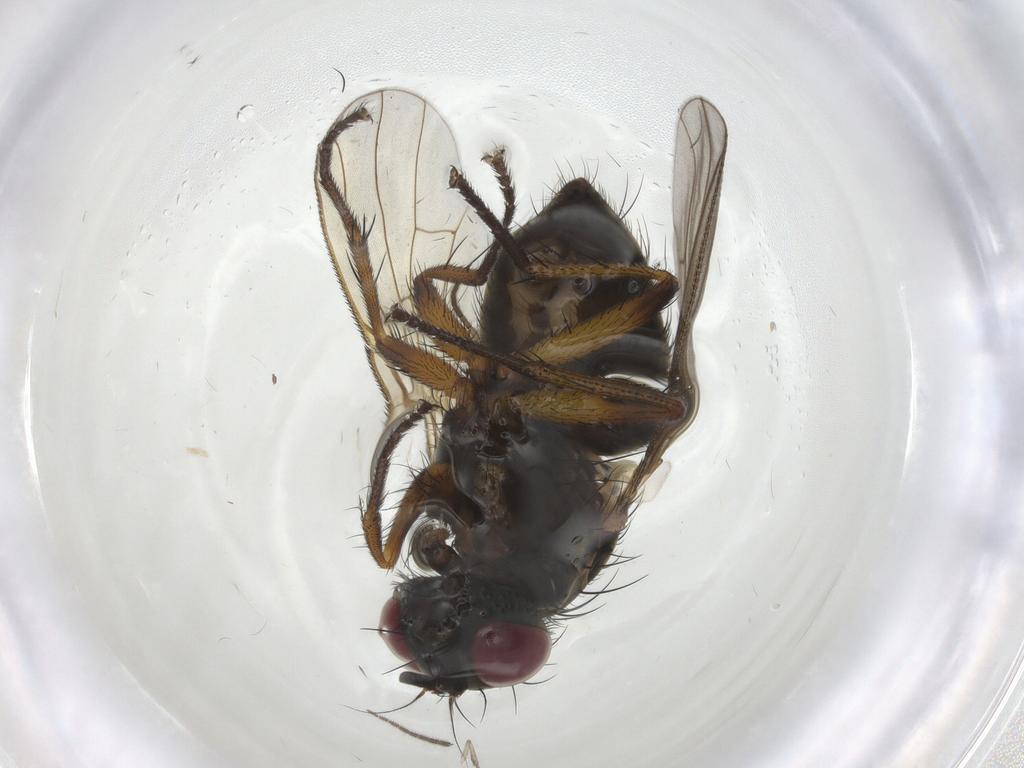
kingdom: Animalia
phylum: Arthropoda
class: Insecta
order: Diptera
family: Muscidae
